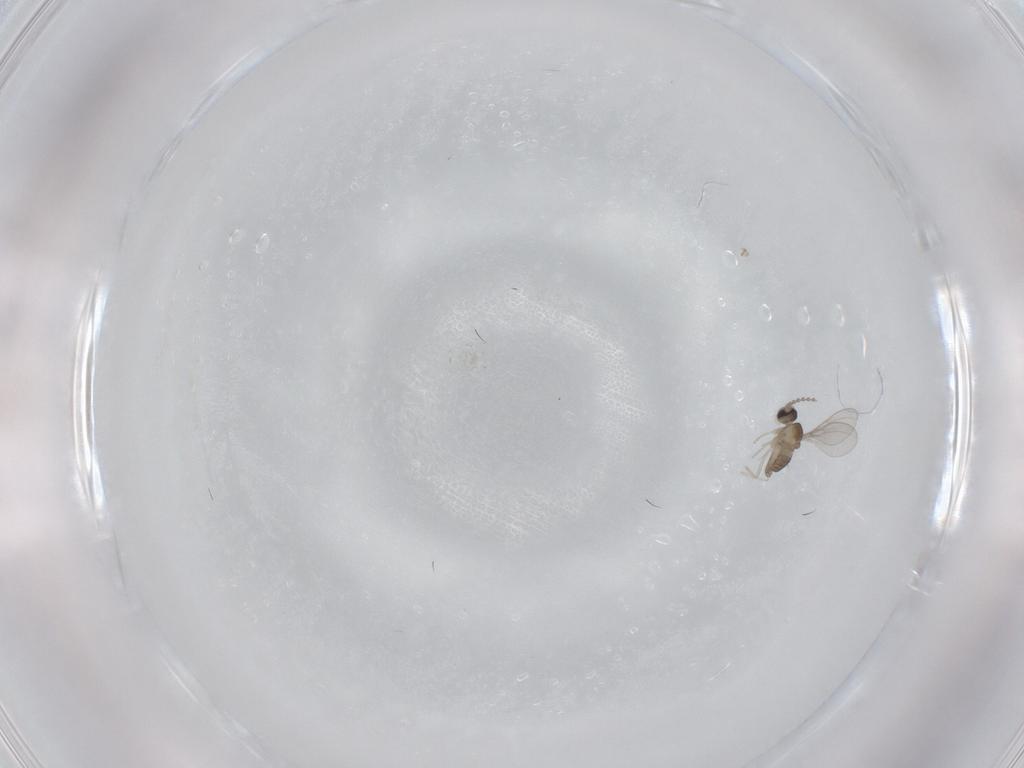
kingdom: Animalia
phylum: Arthropoda
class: Insecta
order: Diptera
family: Cecidomyiidae
